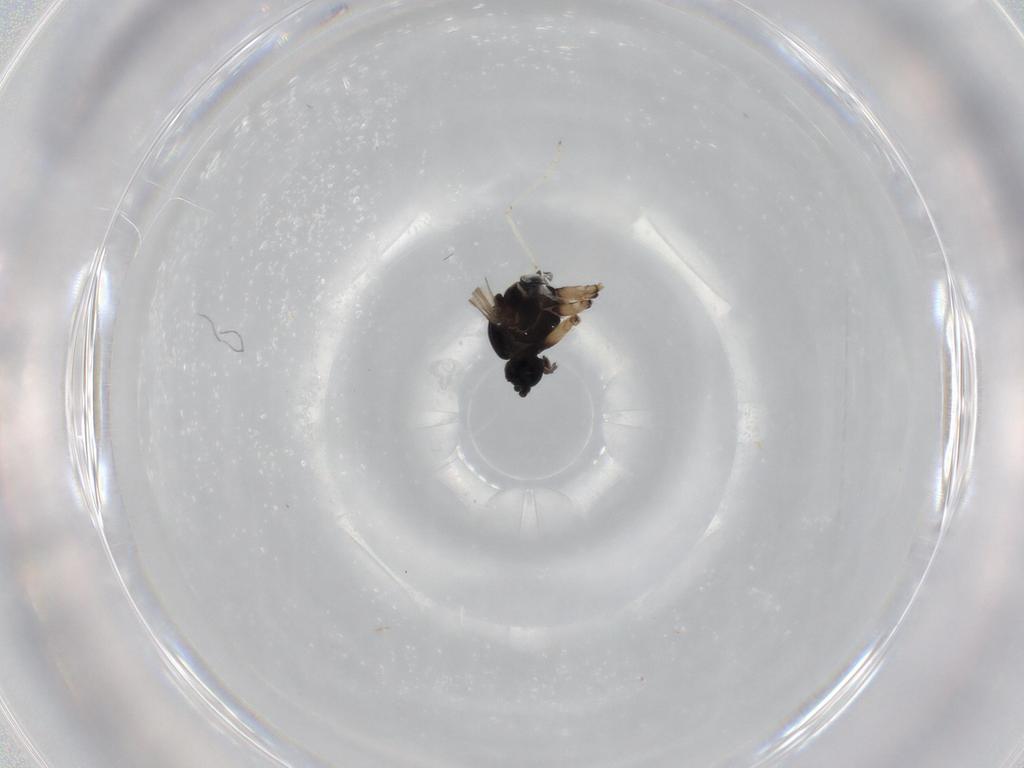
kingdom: Animalia
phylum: Arthropoda
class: Insecta
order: Diptera
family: Sciaridae
